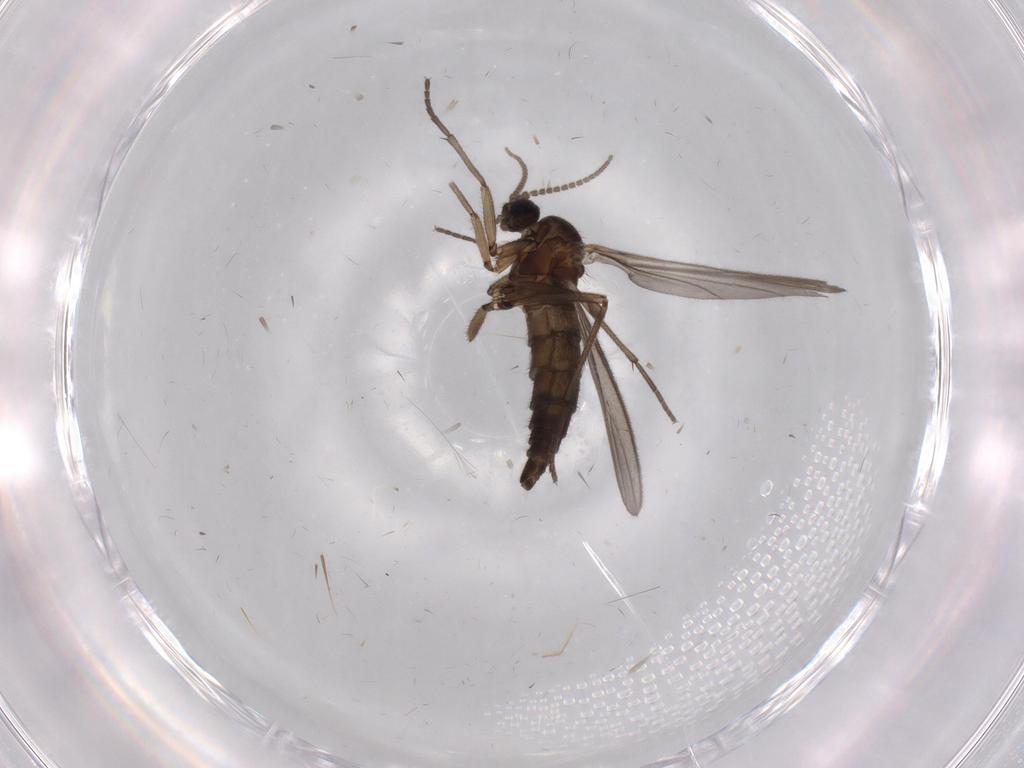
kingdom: Animalia
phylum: Arthropoda
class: Insecta
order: Diptera
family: Sciaridae
